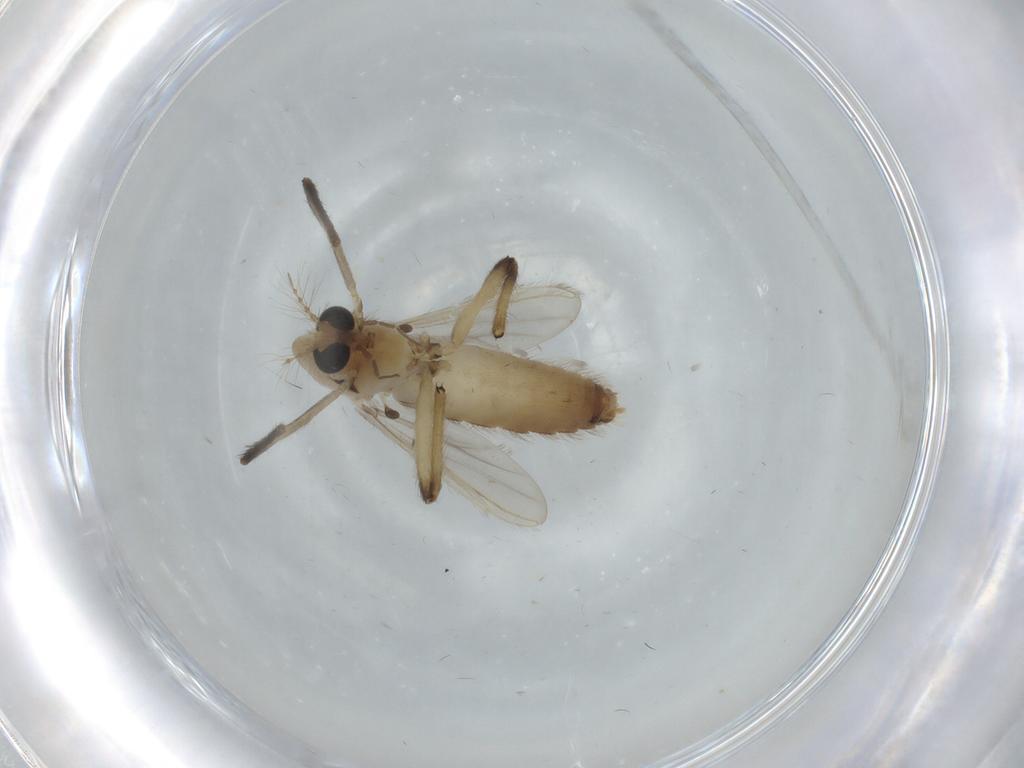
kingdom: Animalia
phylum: Arthropoda
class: Insecta
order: Diptera
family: Chironomidae
